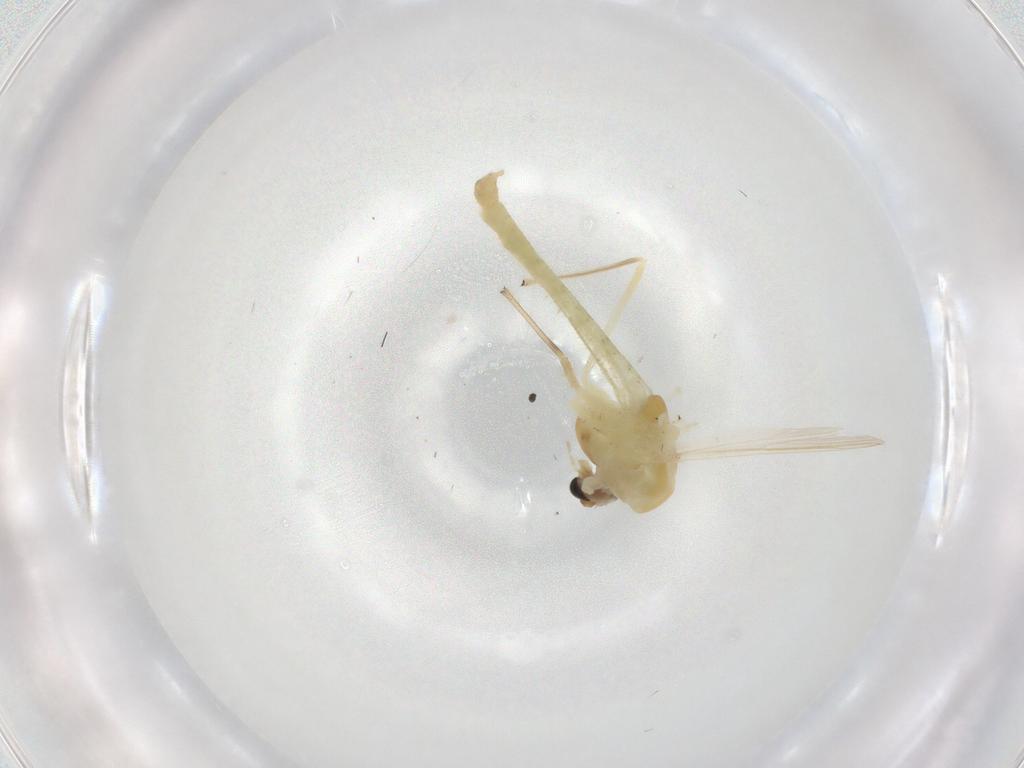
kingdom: Animalia
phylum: Arthropoda
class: Insecta
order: Diptera
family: Chironomidae
